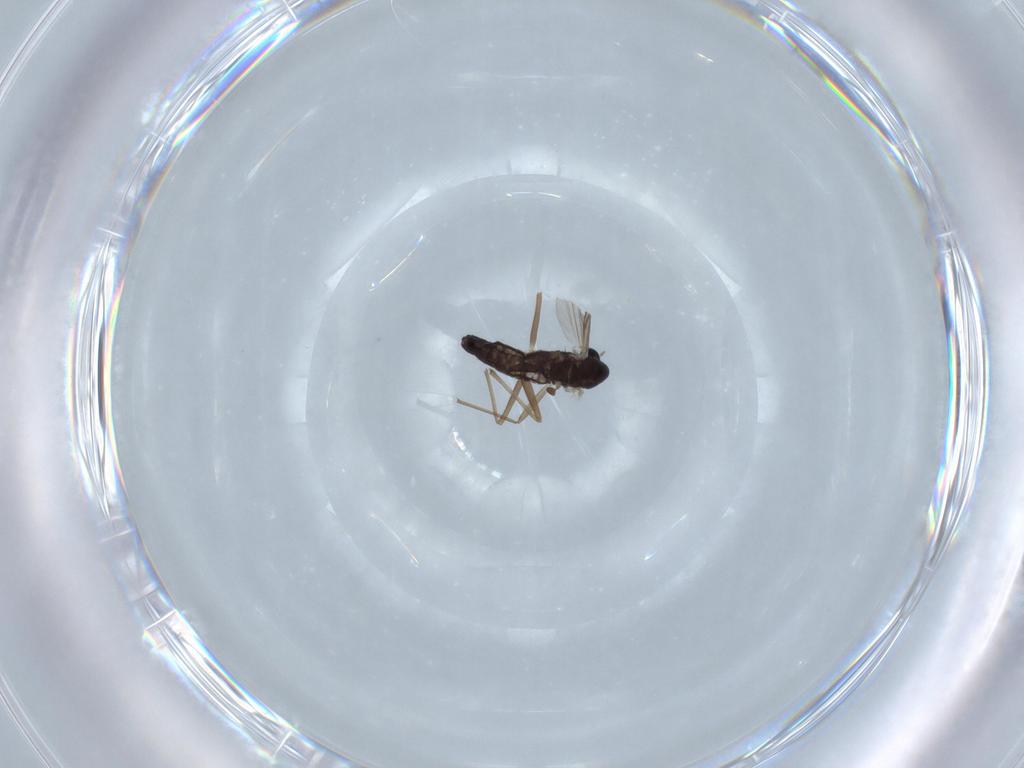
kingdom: Animalia
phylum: Arthropoda
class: Insecta
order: Diptera
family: Chironomidae
